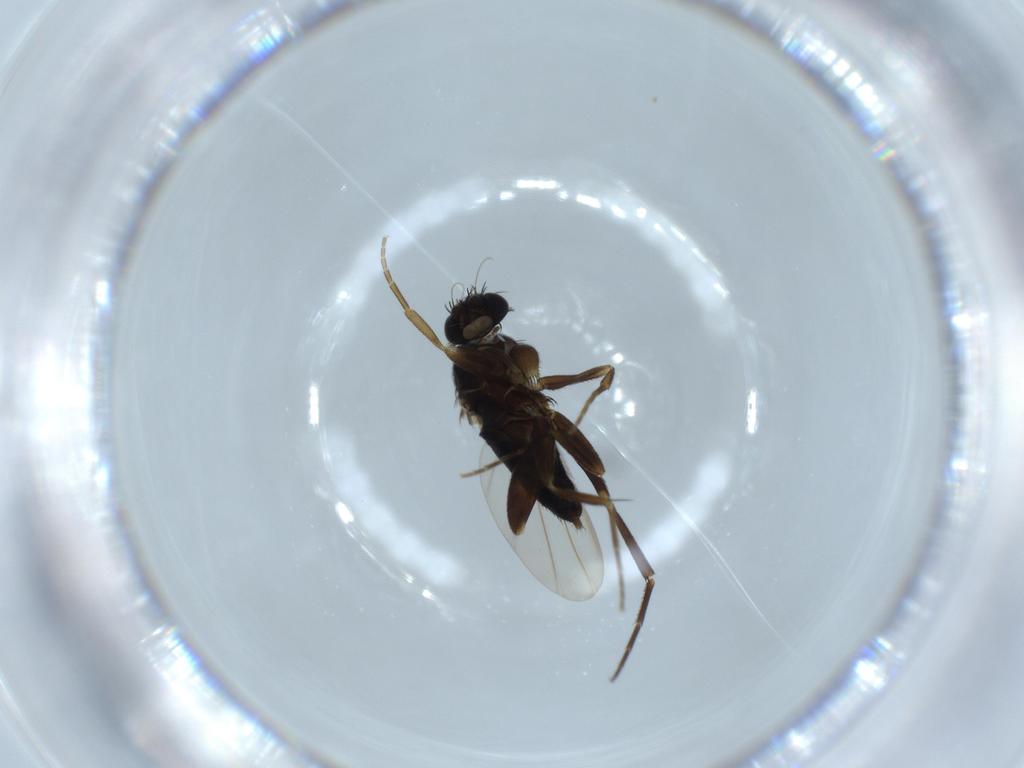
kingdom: Animalia
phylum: Arthropoda
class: Insecta
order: Diptera
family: Phoridae
